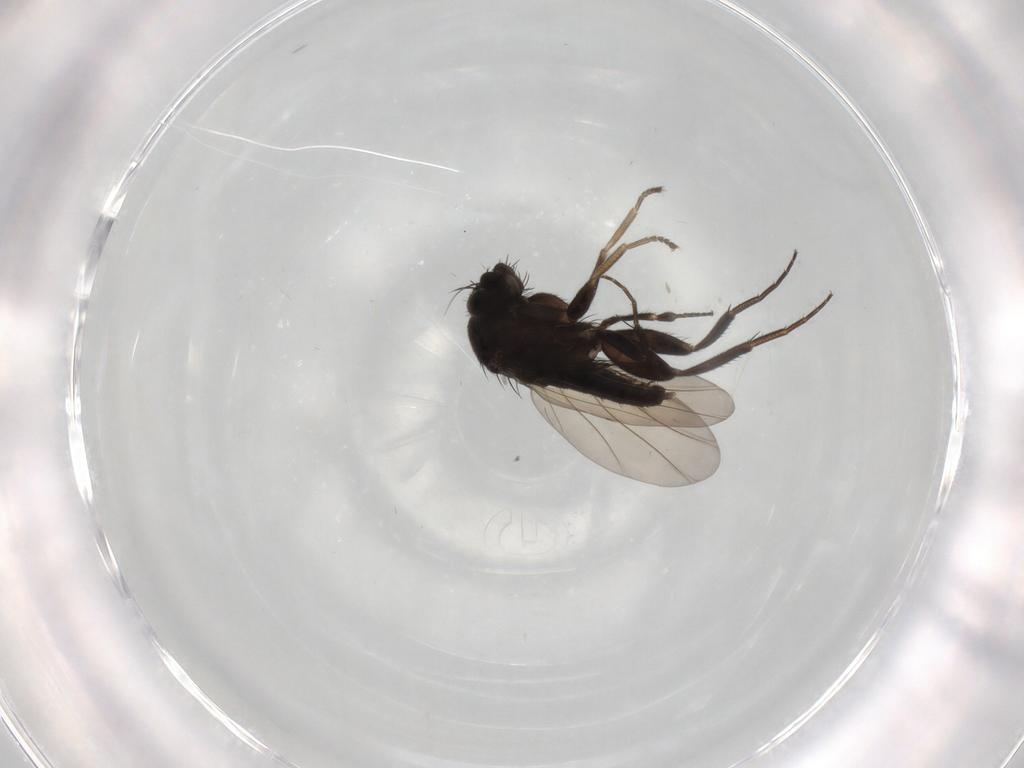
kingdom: Animalia
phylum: Arthropoda
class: Insecta
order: Diptera
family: Phoridae
